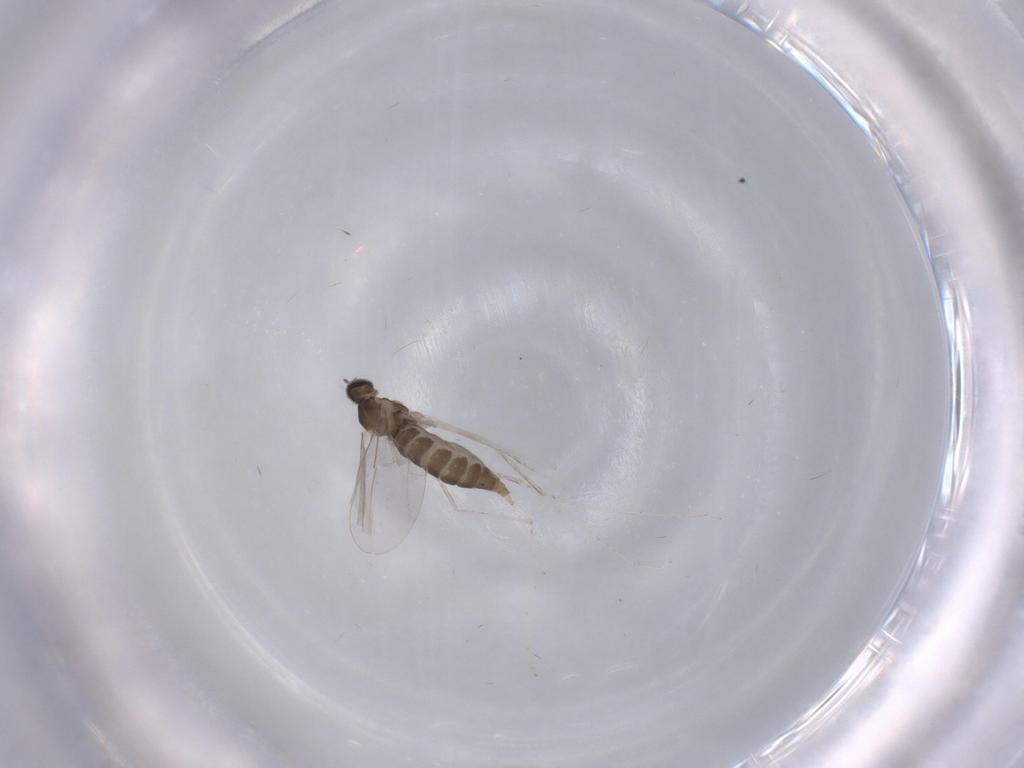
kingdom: Animalia
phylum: Arthropoda
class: Insecta
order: Diptera
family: Cecidomyiidae
